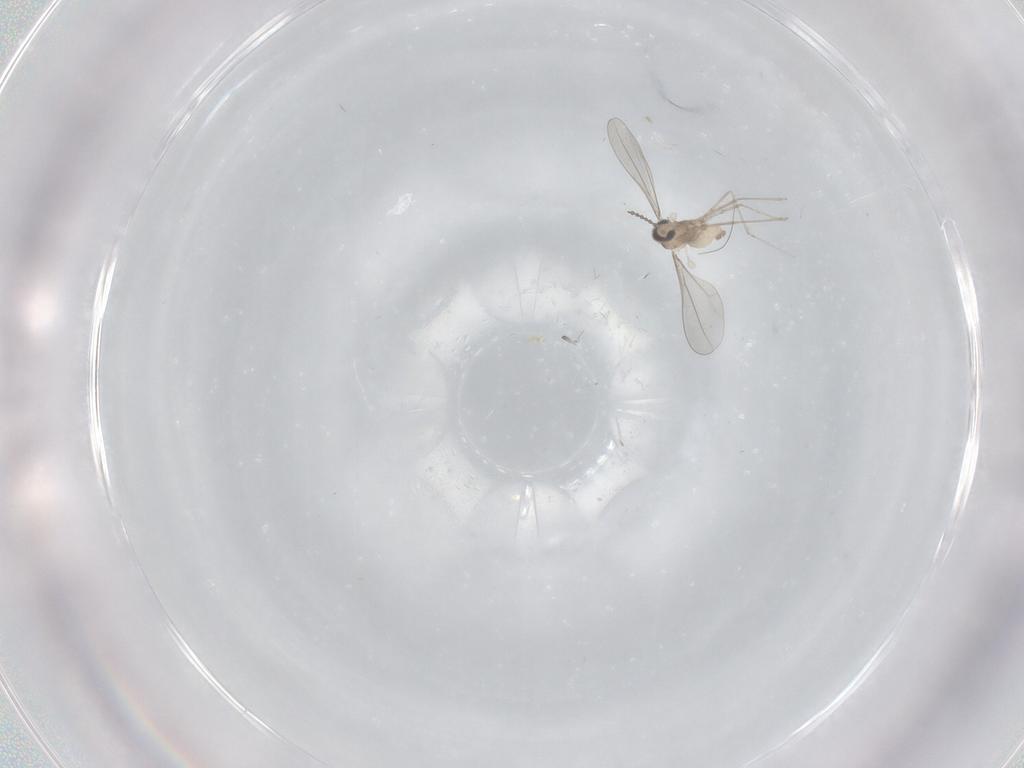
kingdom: Animalia
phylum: Arthropoda
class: Insecta
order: Diptera
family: Cecidomyiidae
